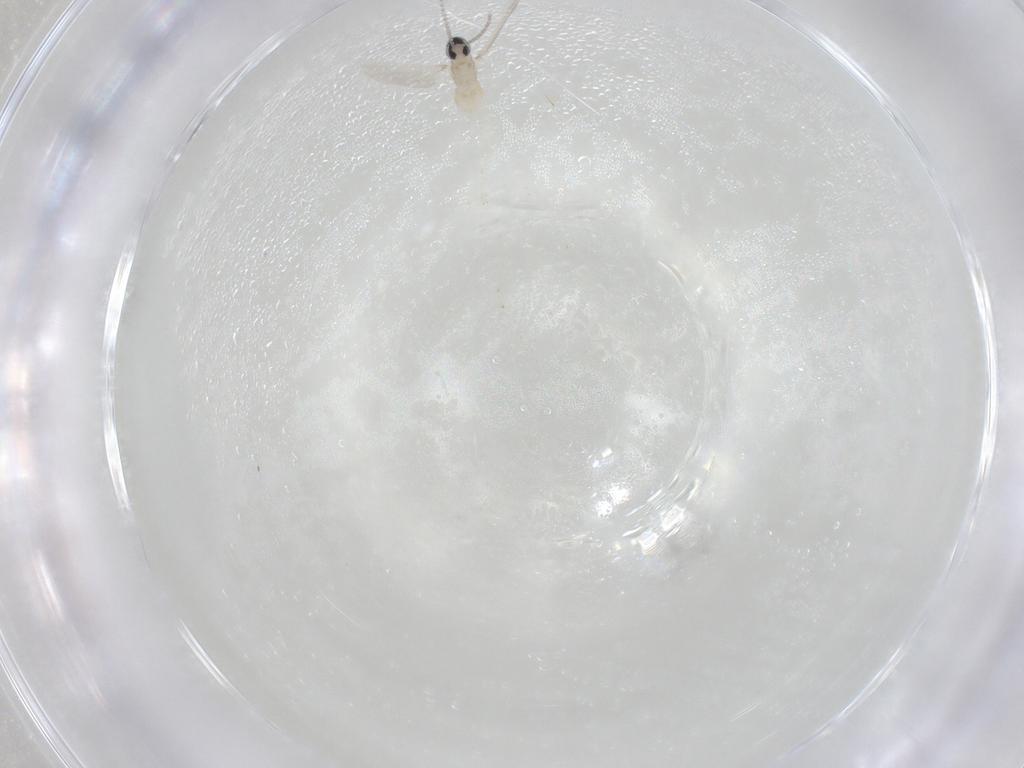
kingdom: Animalia
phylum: Arthropoda
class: Insecta
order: Diptera
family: Cecidomyiidae
